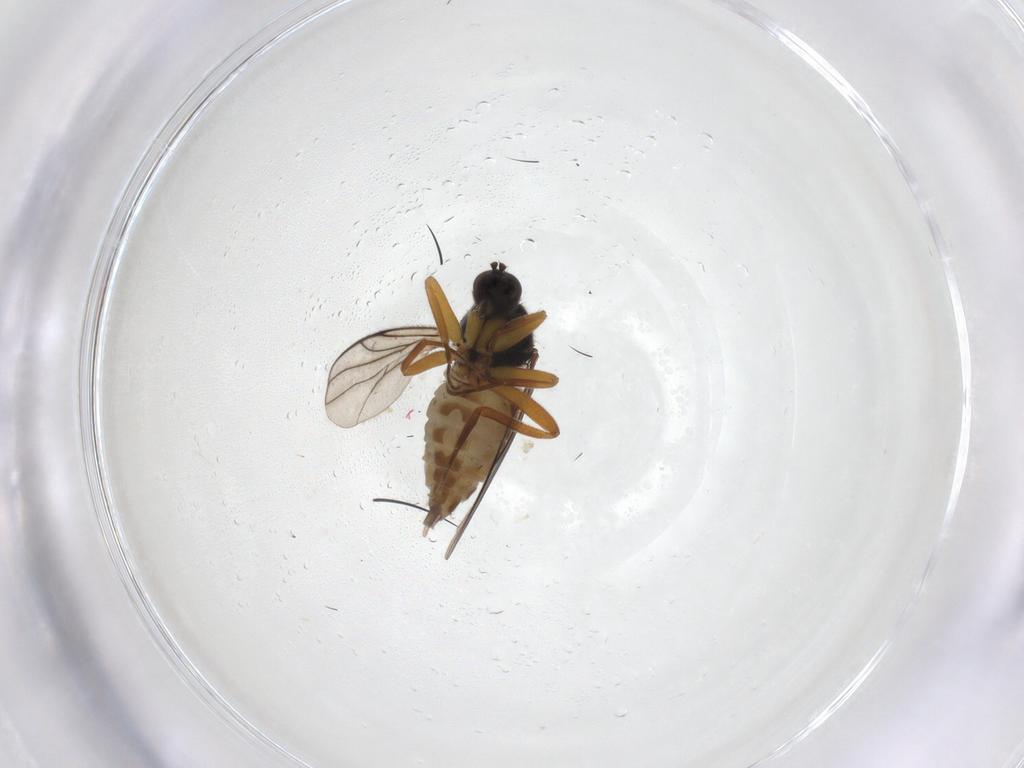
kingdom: Animalia
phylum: Arthropoda
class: Insecta
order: Diptera
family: Hybotidae
